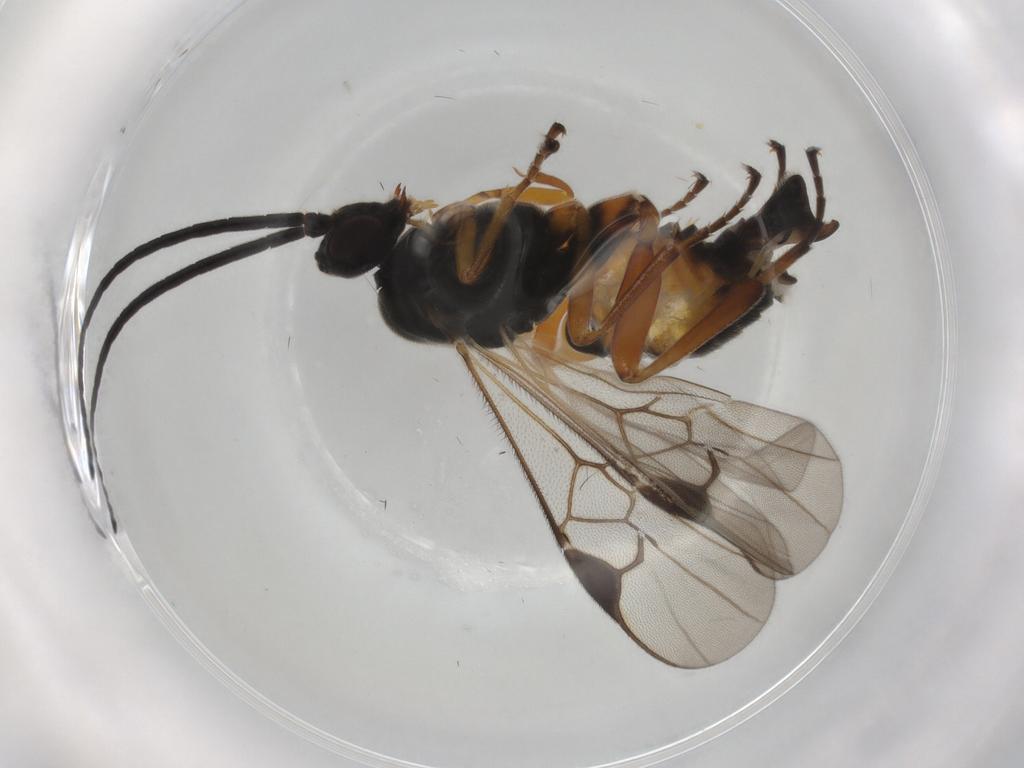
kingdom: Animalia
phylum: Arthropoda
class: Insecta
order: Lepidoptera
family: Tortricidae
